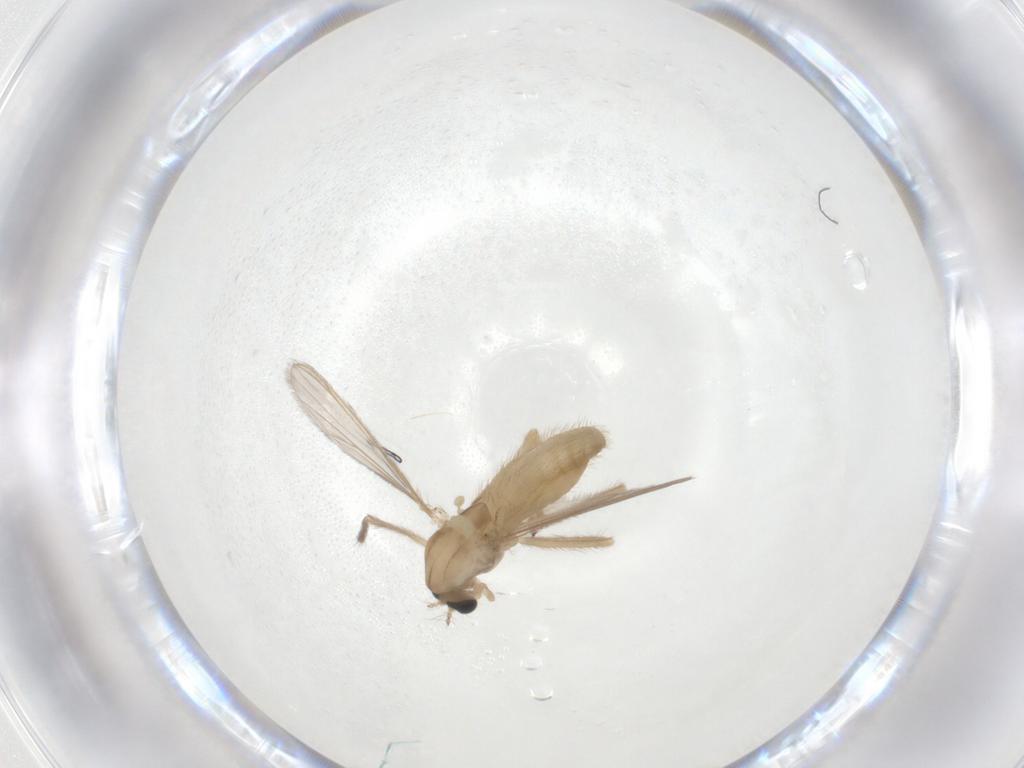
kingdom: Animalia
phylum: Arthropoda
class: Insecta
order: Diptera
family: Chironomidae
